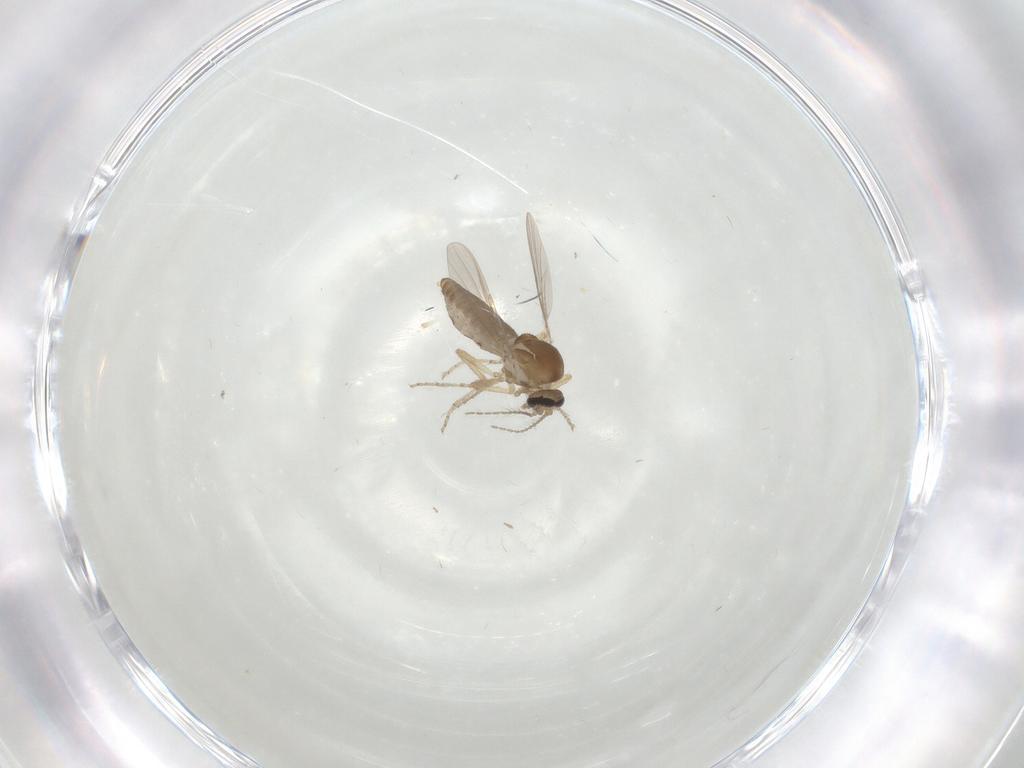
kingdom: Animalia
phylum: Arthropoda
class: Insecta
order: Diptera
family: Ceratopogonidae
